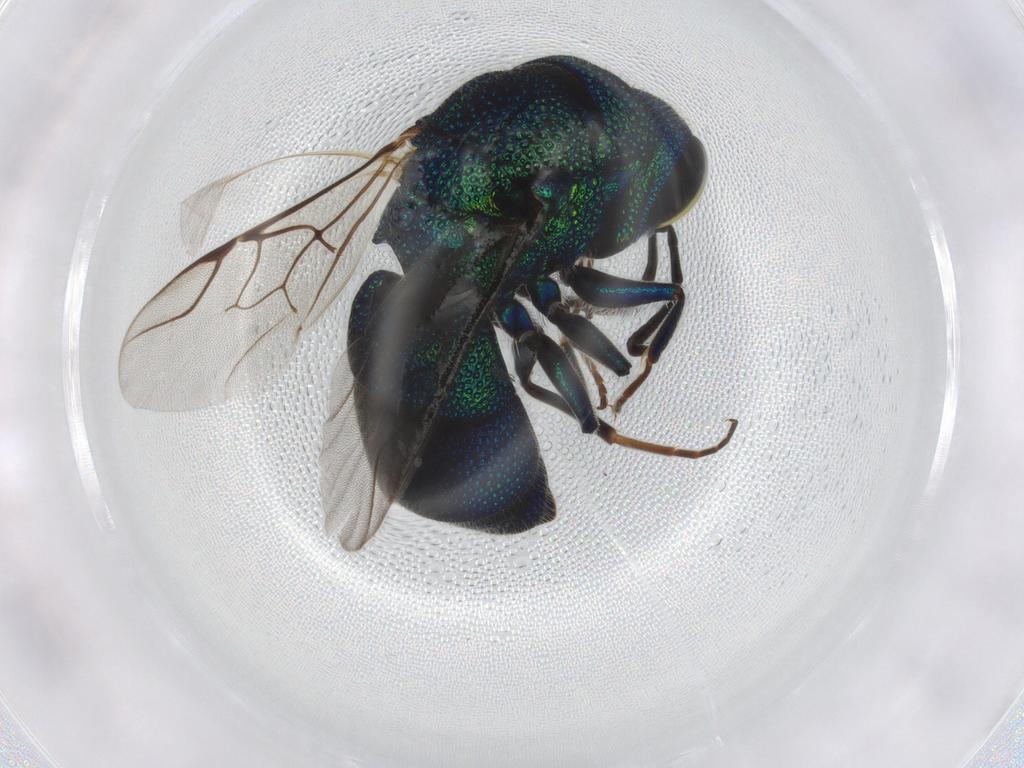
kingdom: Animalia
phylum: Arthropoda
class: Insecta
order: Hymenoptera
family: Chrysididae
